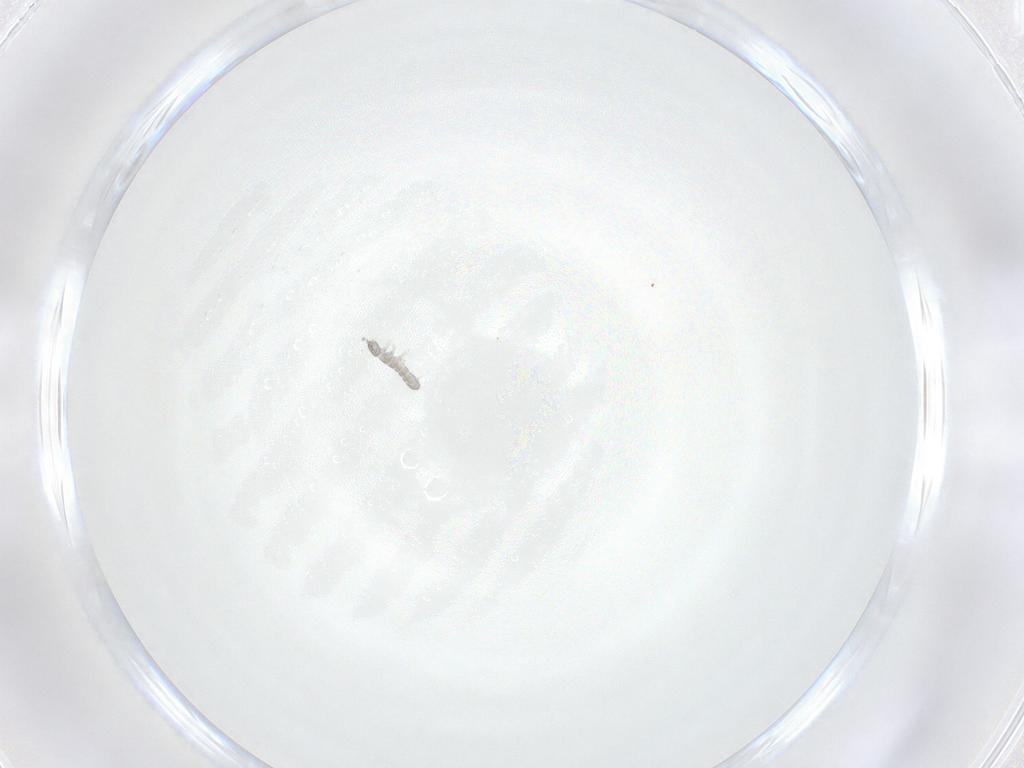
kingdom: Animalia
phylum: Arthropoda
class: Collembola
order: Entomobryomorpha
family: Isotomidae
